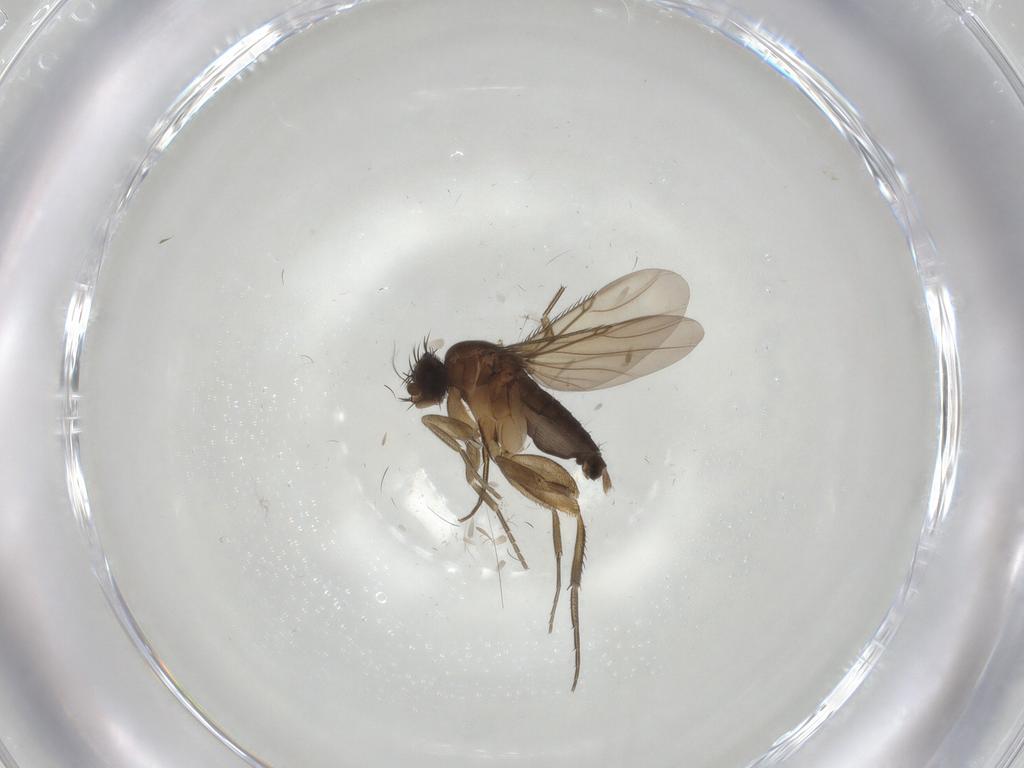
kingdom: Animalia
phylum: Arthropoda
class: Insecta
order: Diptera
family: Phoridae
